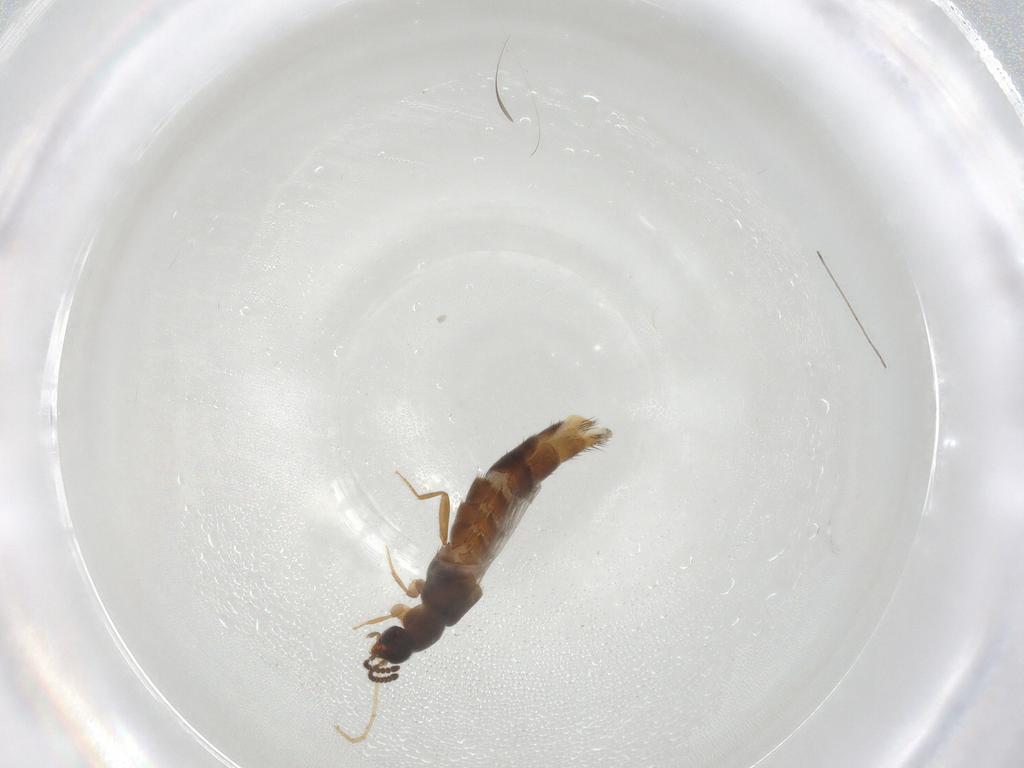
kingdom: Animalia
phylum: Arthropoda
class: Insecta
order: Coleoptera
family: Staphylinidae
